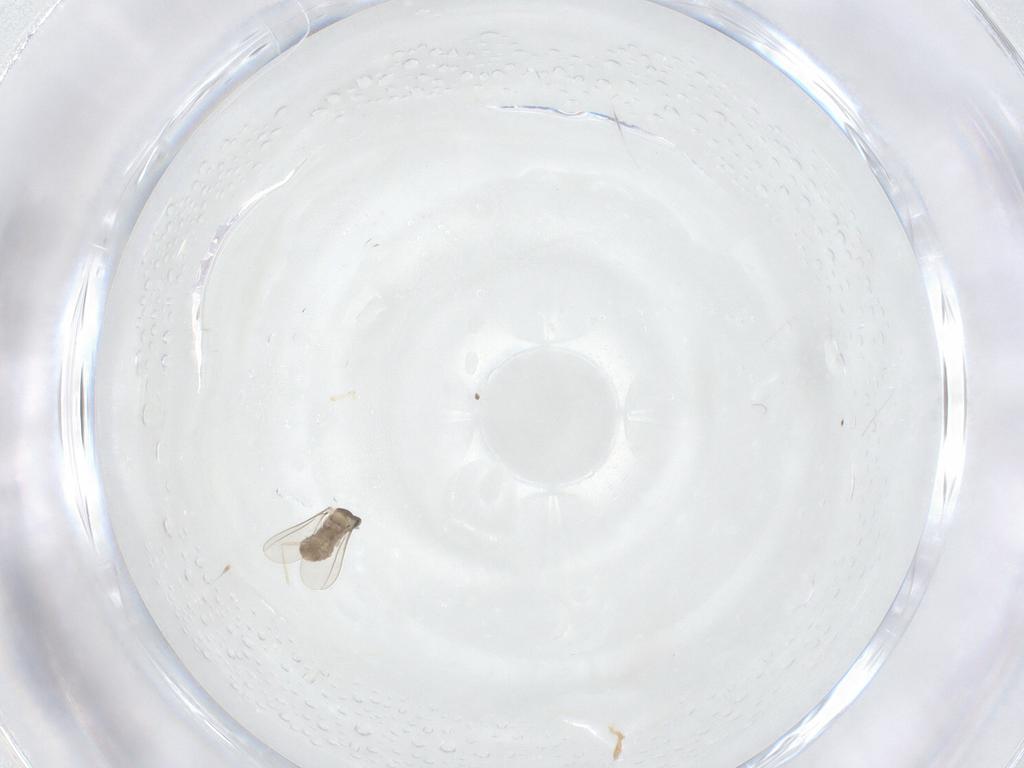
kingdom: Animalia
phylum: Arthropoda
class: Insecta
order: Diptera
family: Cecidomyiidae
